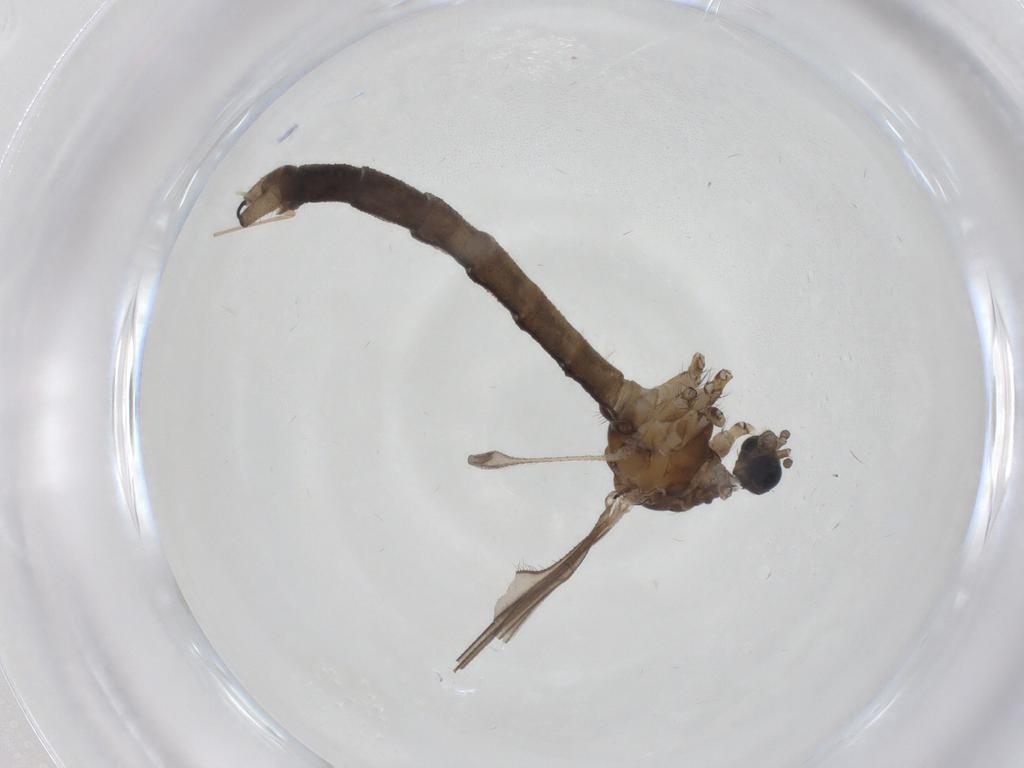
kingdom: Animalia
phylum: Arthropoda
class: Insecta
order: Diptera
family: Chironomidae
